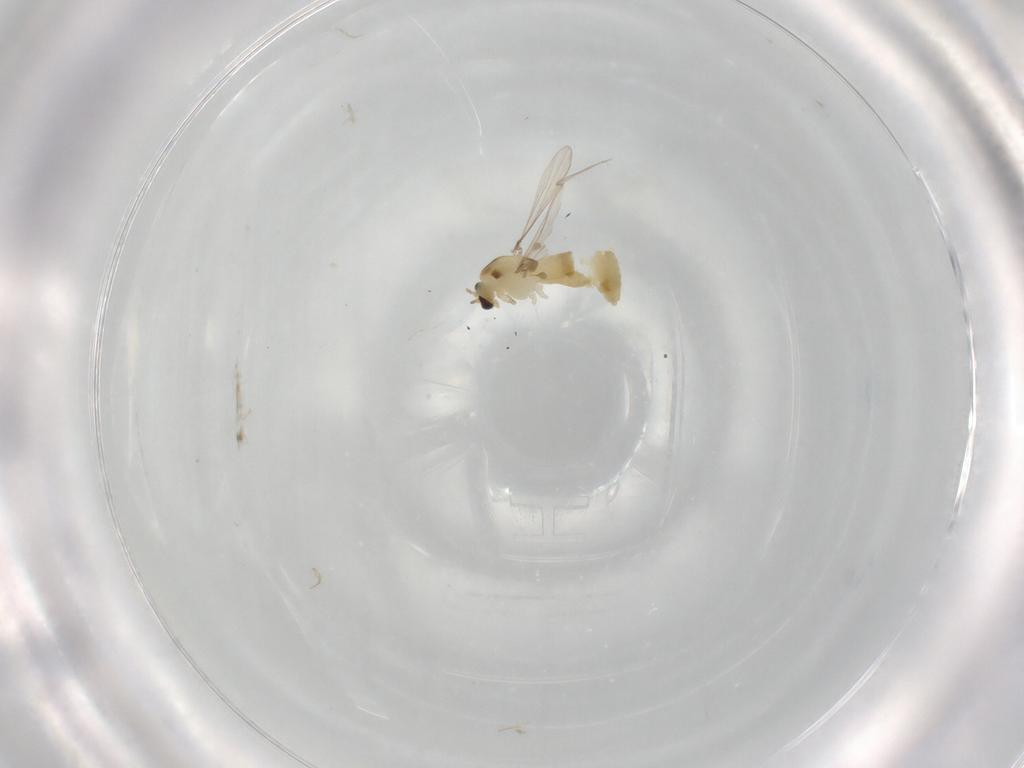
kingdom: Animalia
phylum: Arthropoda
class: Insecta
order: Diptera
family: Chironomidae
